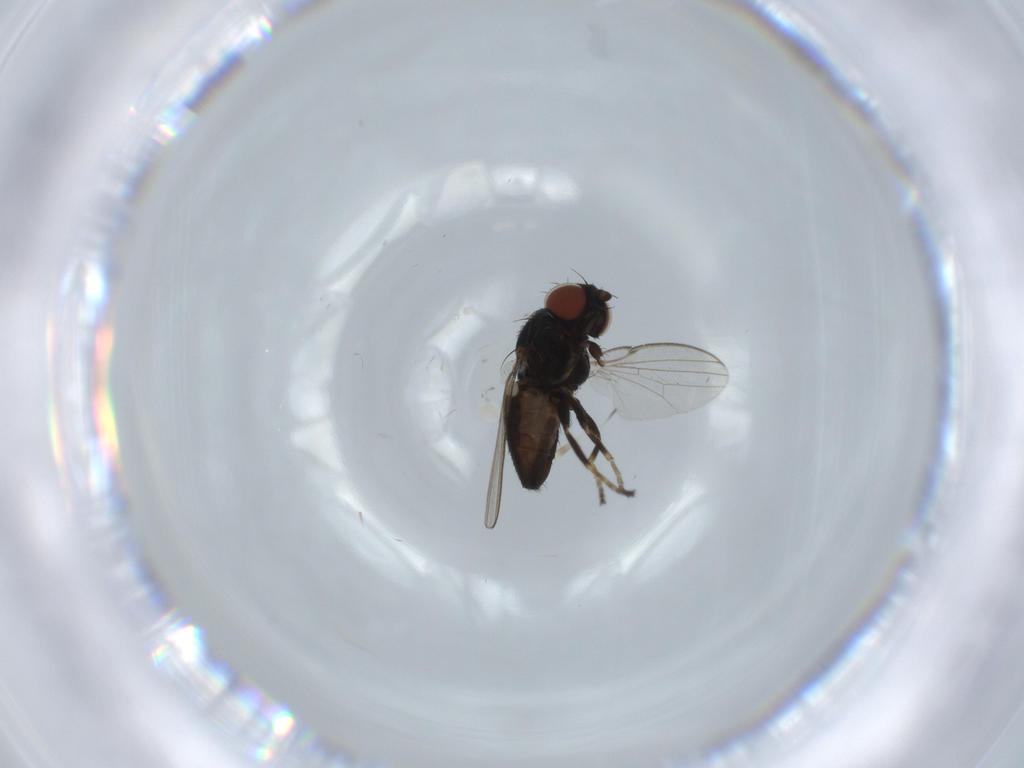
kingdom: Animalia
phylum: Arthropoda
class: Insecta
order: Diptera
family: Milichiidae
